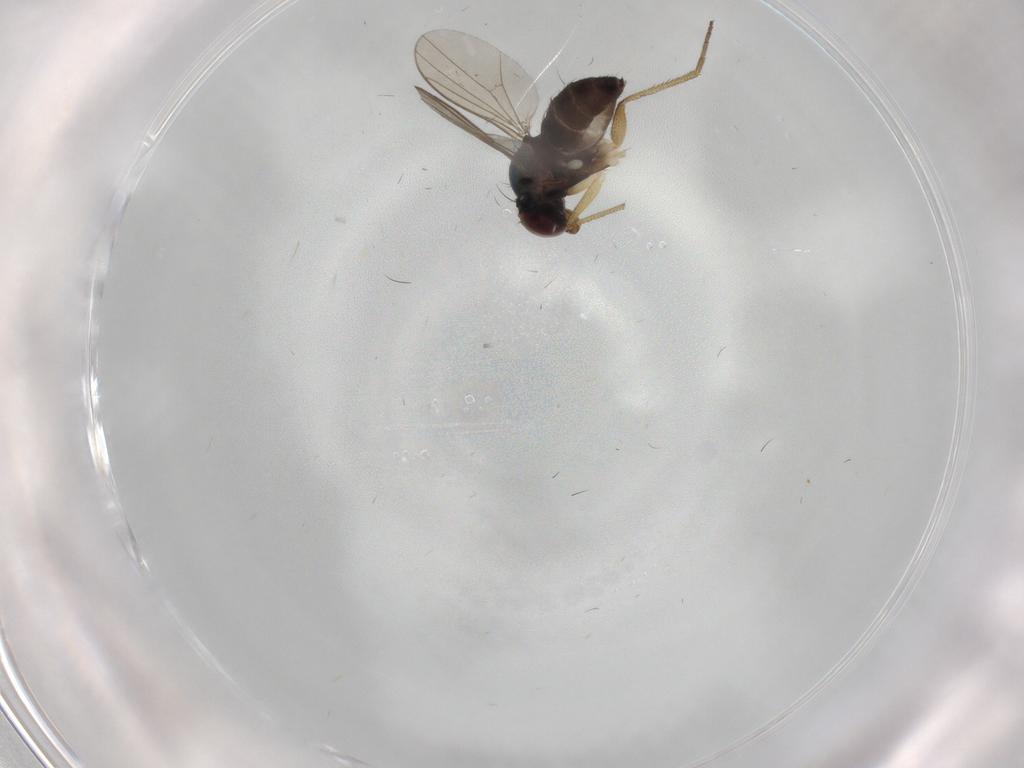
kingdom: Animalia
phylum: Arthropoda
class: Insecta
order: Diptera
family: Dolichopodidae
